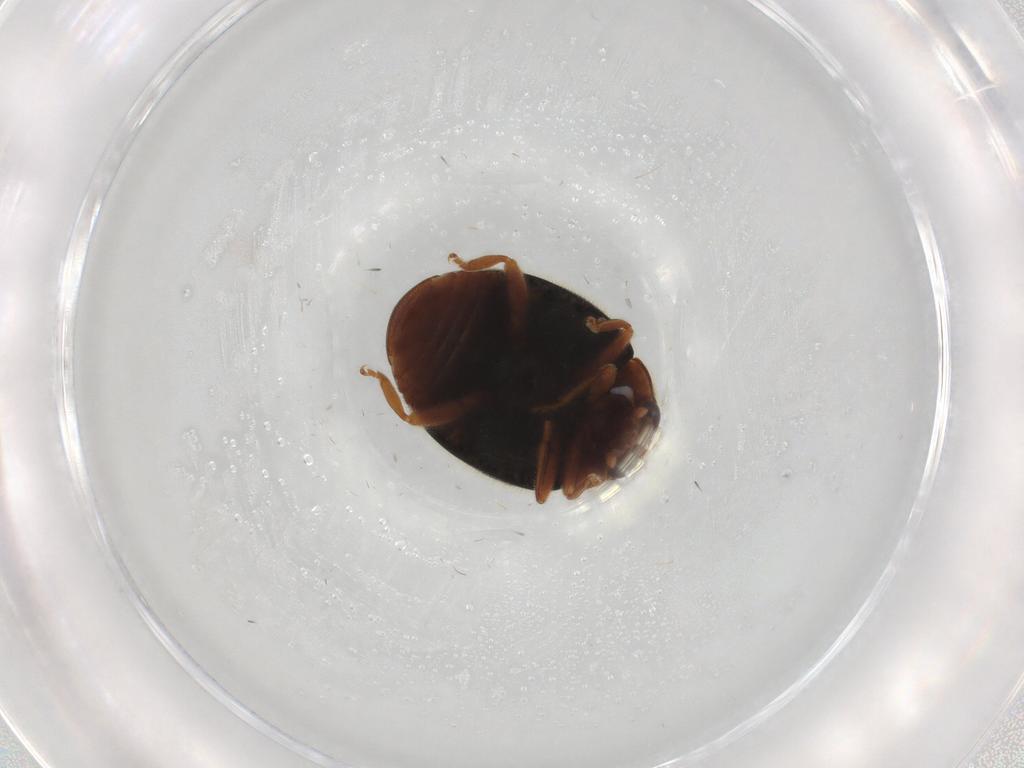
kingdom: Animalia
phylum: Arthropoda
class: Insecta
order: Coleoptera
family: Coccinellidae
